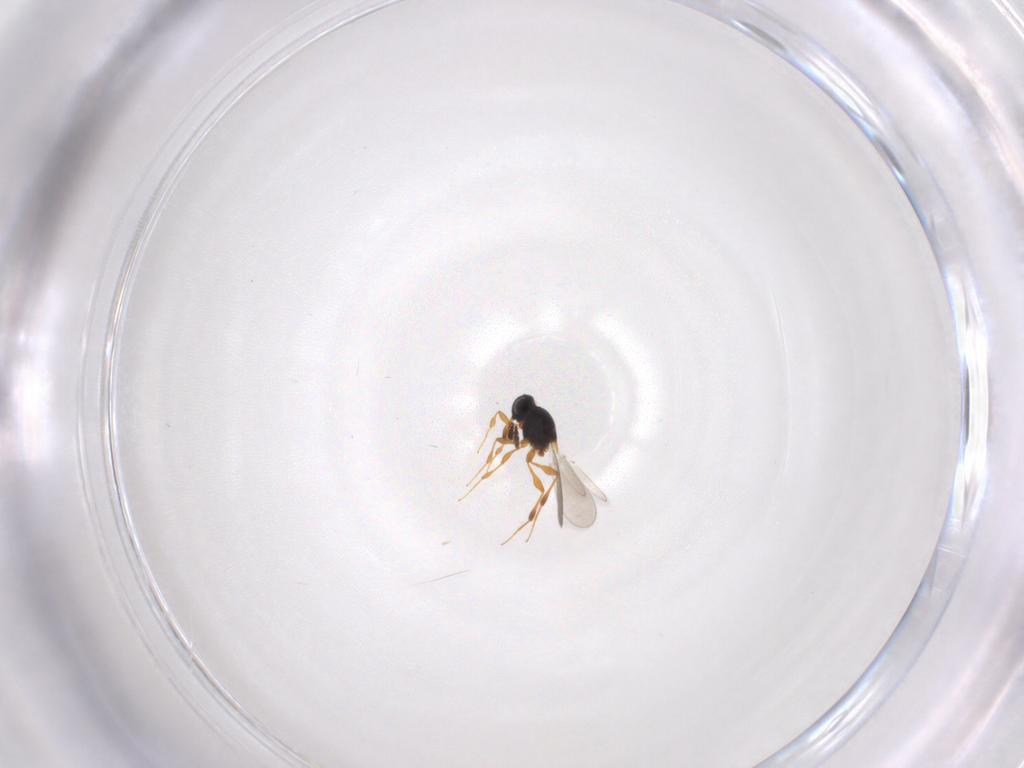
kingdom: Animalia
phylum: Arthropoda
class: Insecta
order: Hymenoptera
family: Platygastridae
